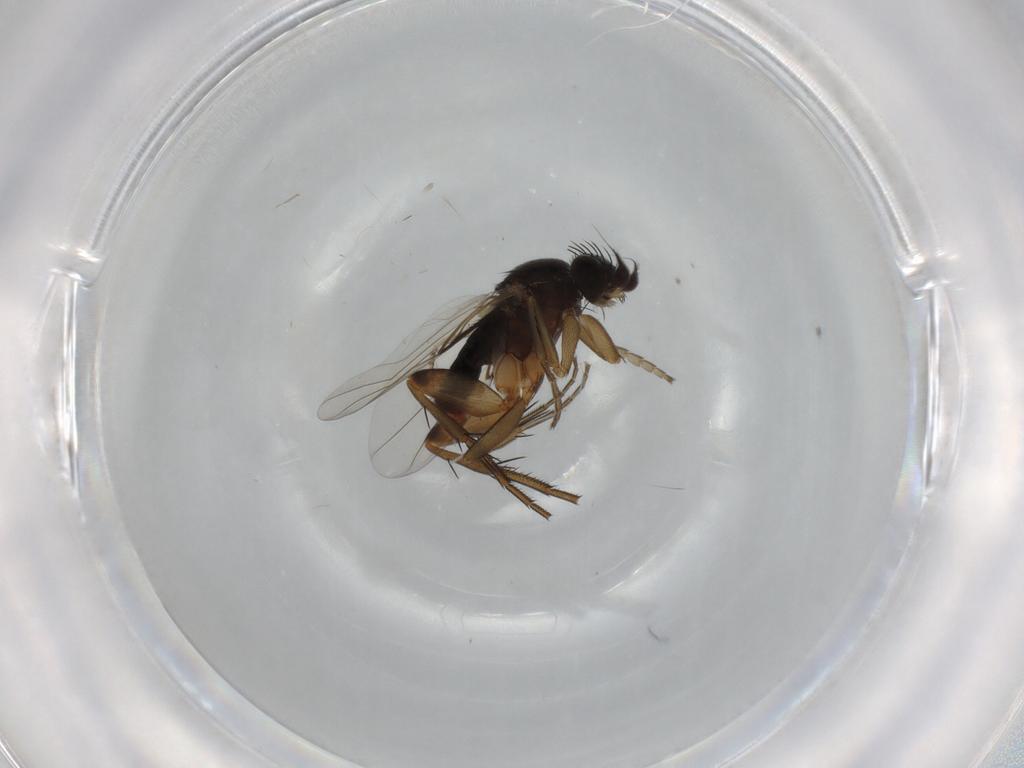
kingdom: Animalia
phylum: Arthropoda
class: Insecta
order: Diptera
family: Phoridae
